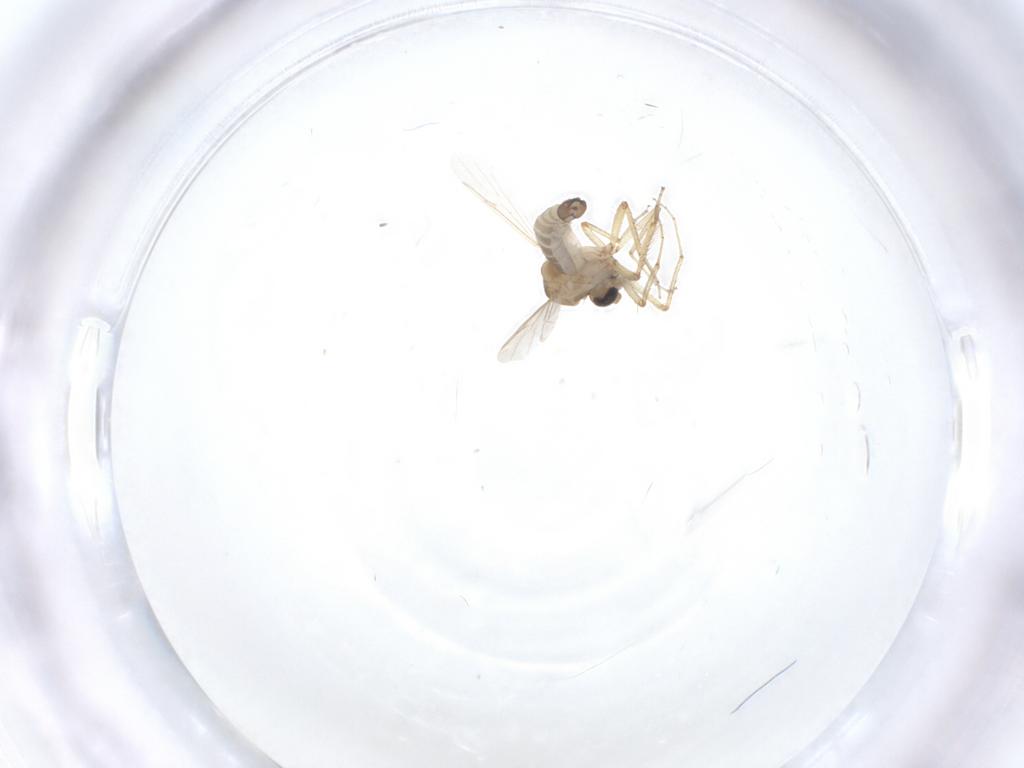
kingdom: Animalia
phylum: Arthropoda
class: Insecta
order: Diptera
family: Ceratopogonidae
